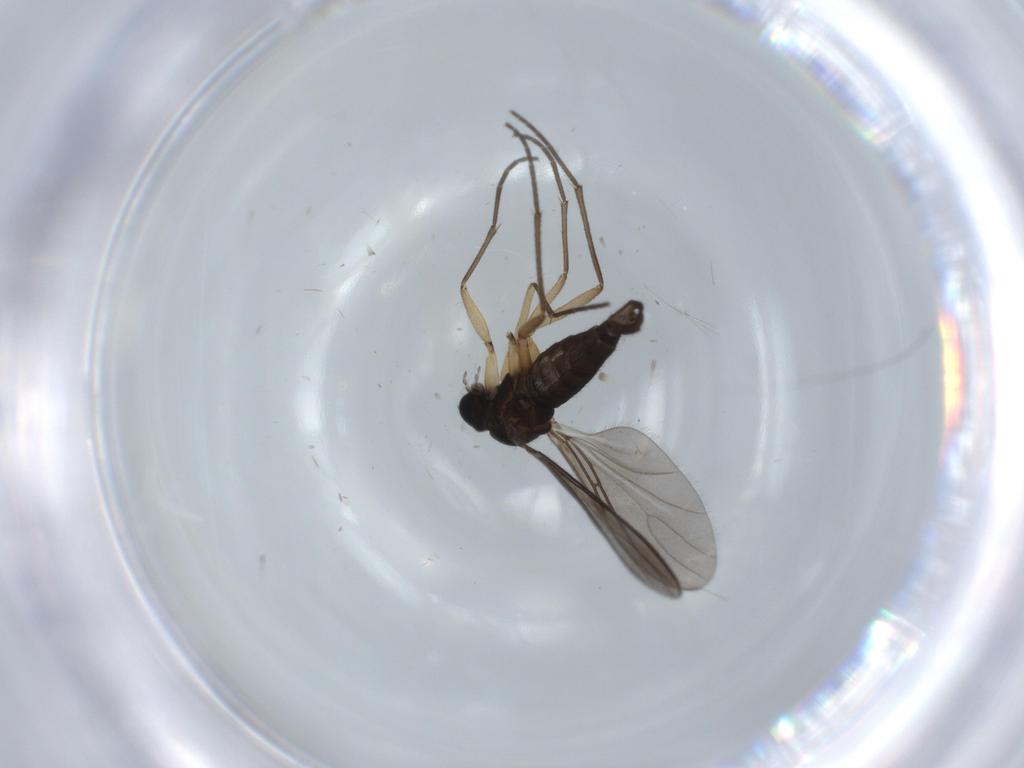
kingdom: Animalia
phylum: Arthropoda
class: Insecta
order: Diptera
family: Sciaridae
